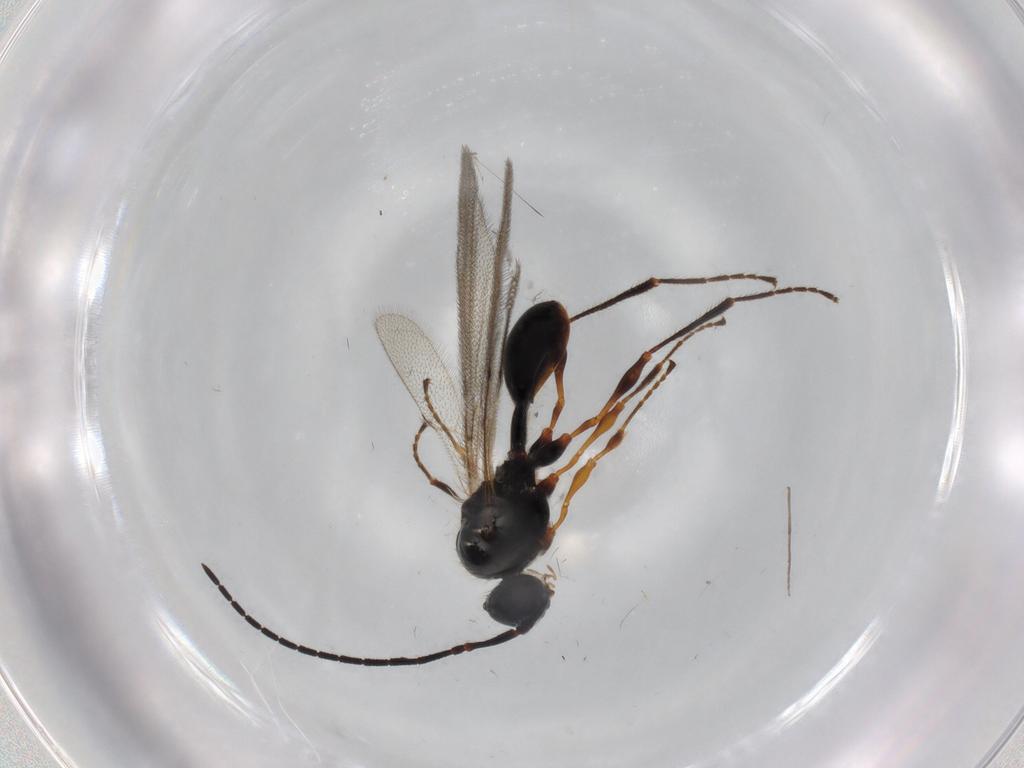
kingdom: Animalia
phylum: Arthropoda
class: Insecta
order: Hymenoptera
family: Diapriidae
